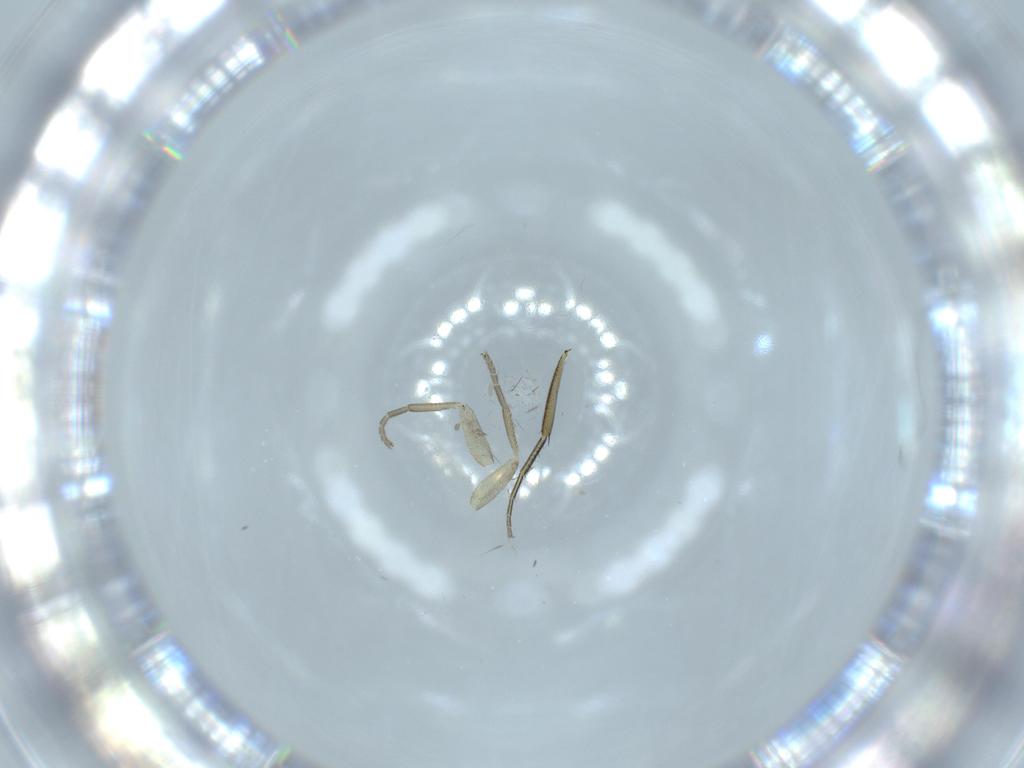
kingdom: Animalia
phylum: Arthropoda
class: Insecta
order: Diptera
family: Phoridae
